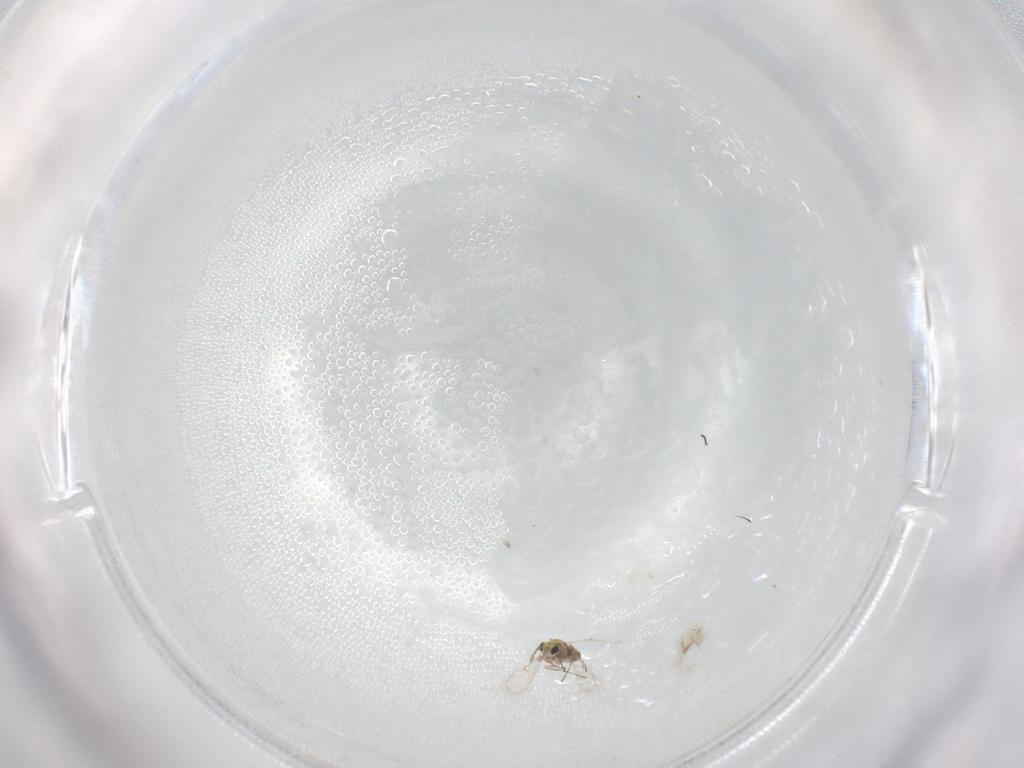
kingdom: Animalia
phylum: Arthropoda
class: Insecta
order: Hymenoptera
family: Trichogrammatidae
